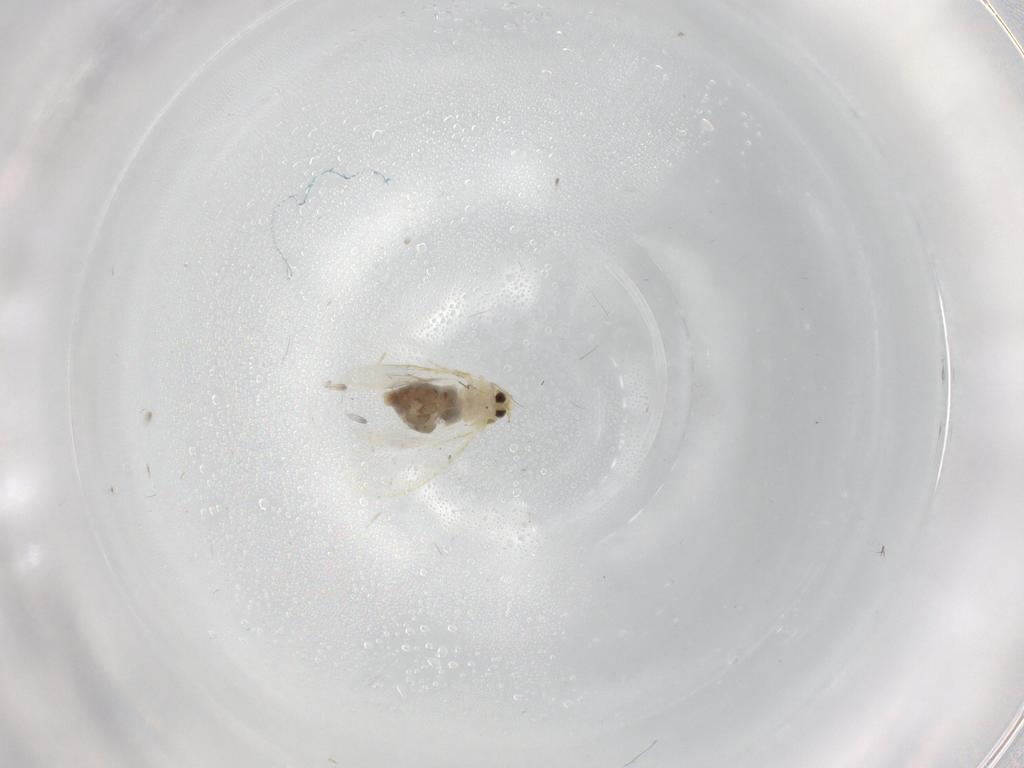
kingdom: Animalia
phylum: Arthropoda
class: Insecta
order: Hemiptera
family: Aleyrodidae
